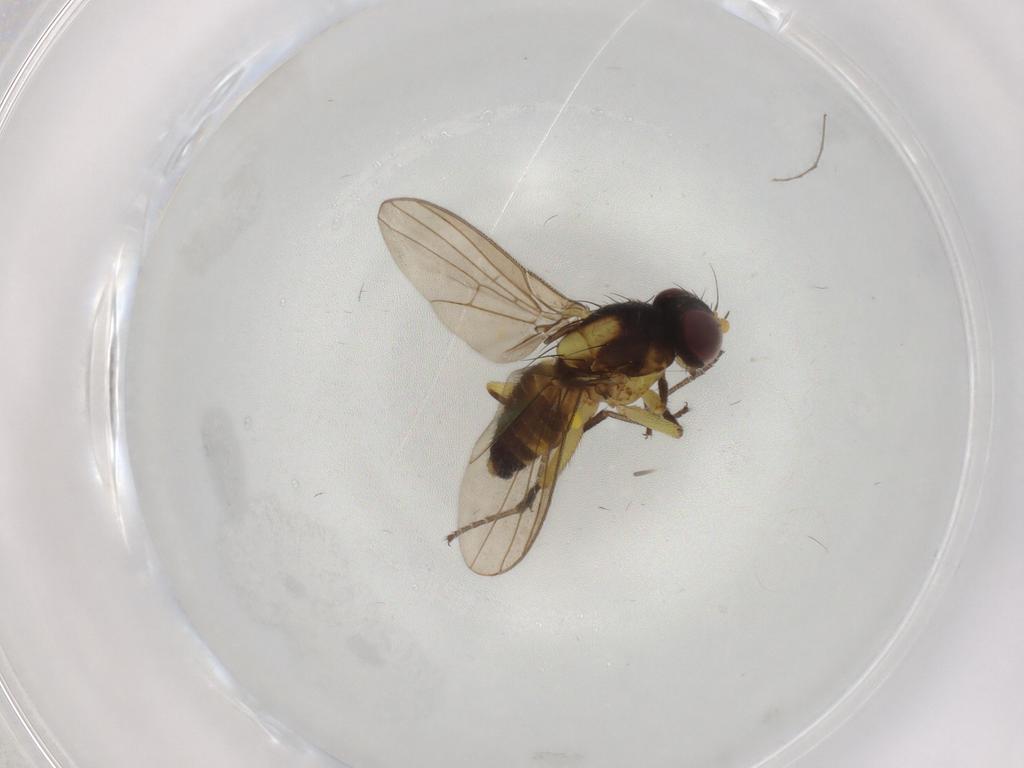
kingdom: Animalia
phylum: Arthropoda
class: Insecta
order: Diptera
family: Cecidomyiidae
